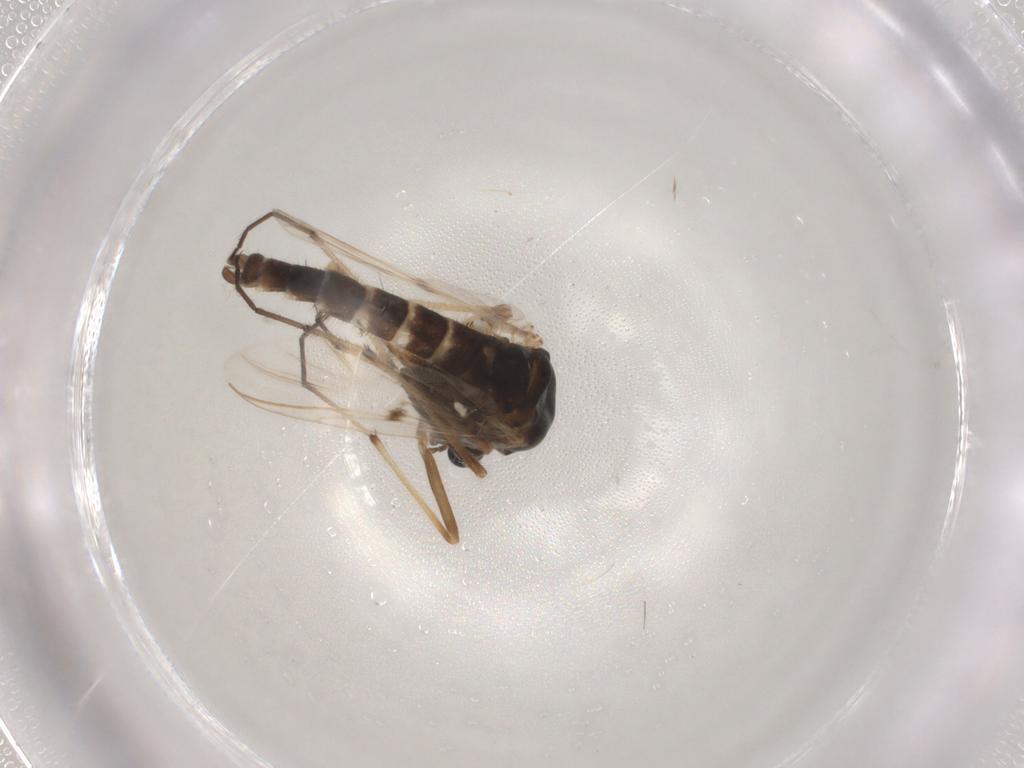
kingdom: Animalia
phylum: Arthropoda
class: Insecta
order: Diptera
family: Chironomidae
